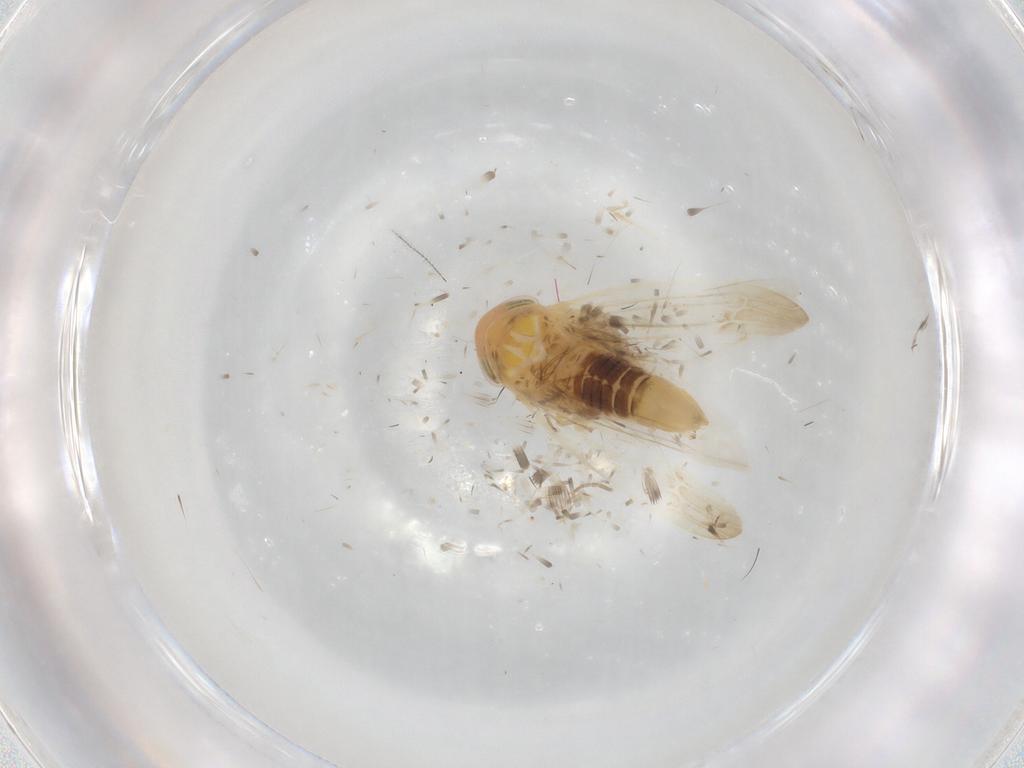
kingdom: Animalia
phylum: Arthropoda
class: Insecta
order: Hemiptera
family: Cicadellidae
